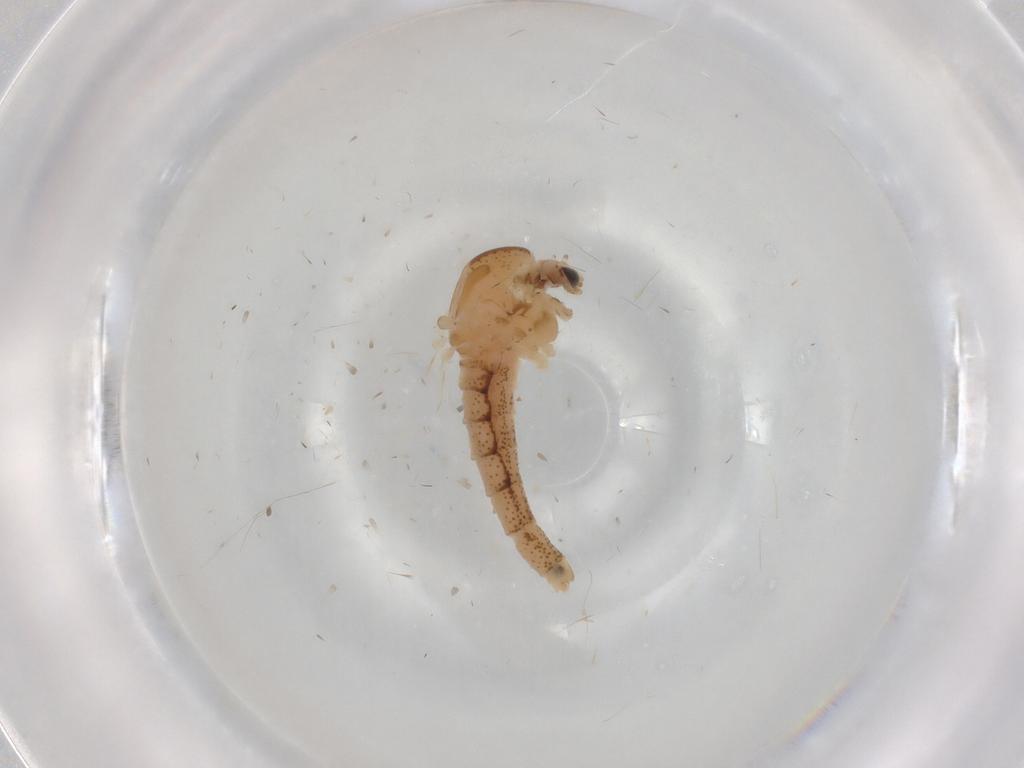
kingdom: Animalia
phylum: Arthropoda
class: Insecta
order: Diptera
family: Chaoboridae
